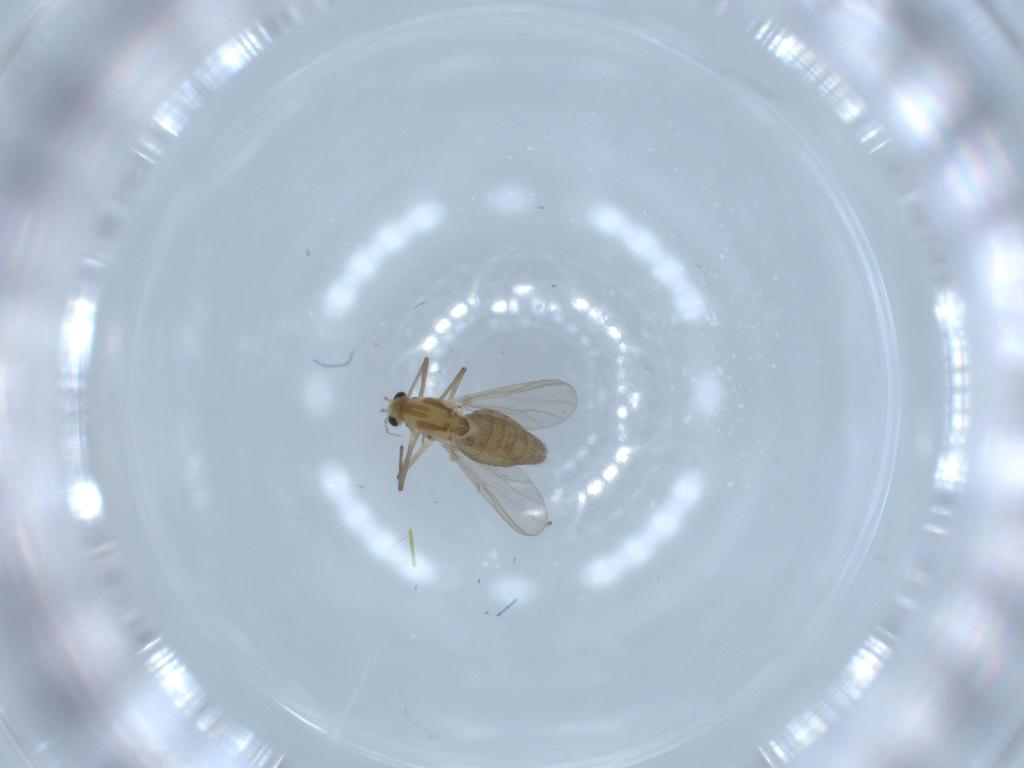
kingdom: Animalia
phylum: Arthropoda
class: Insecta
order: Diptera
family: Chironomidae
